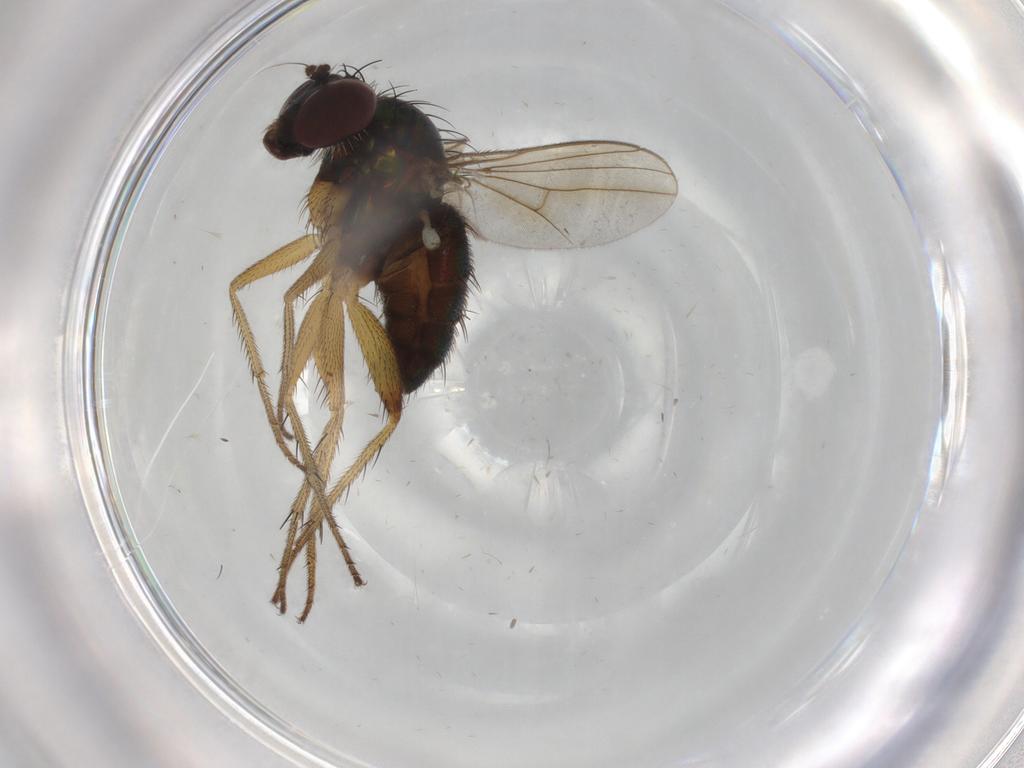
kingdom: Animalia
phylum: Arthropoda
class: Insecta
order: Diptera
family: Dolichopodidae
